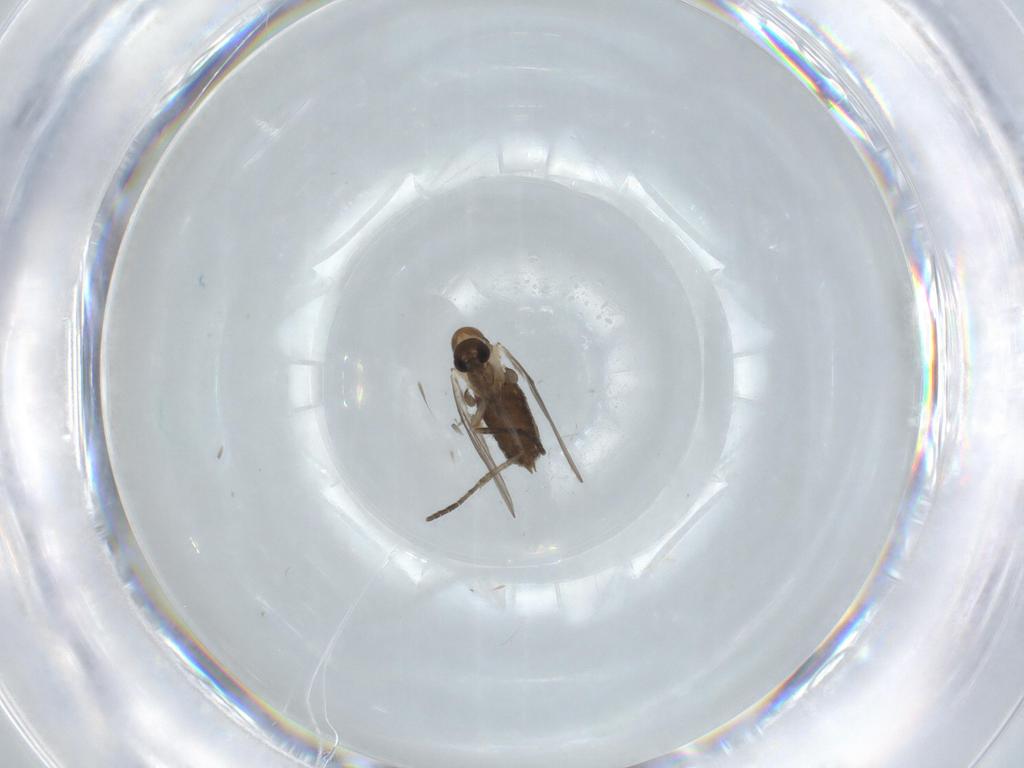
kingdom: Animalia
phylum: Arthropoda
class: Insecta
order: Diptera
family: Psychodidae
